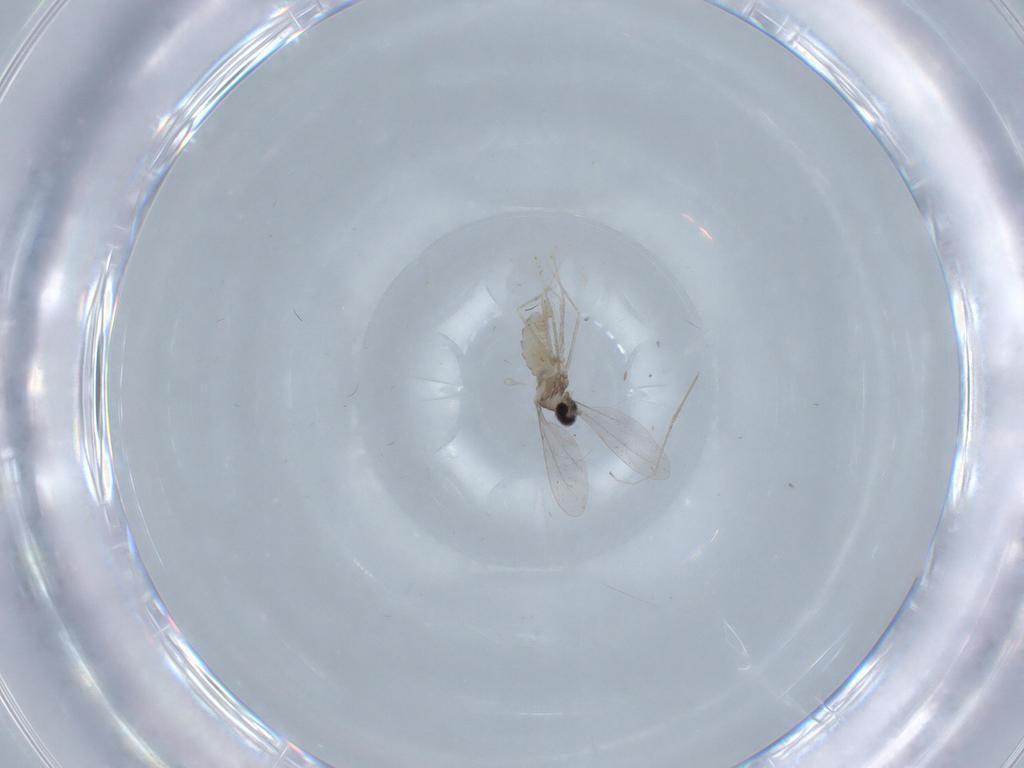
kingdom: Animalia
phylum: Arthropoda
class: Insecta
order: Diptera
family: Cecidomyiidae
